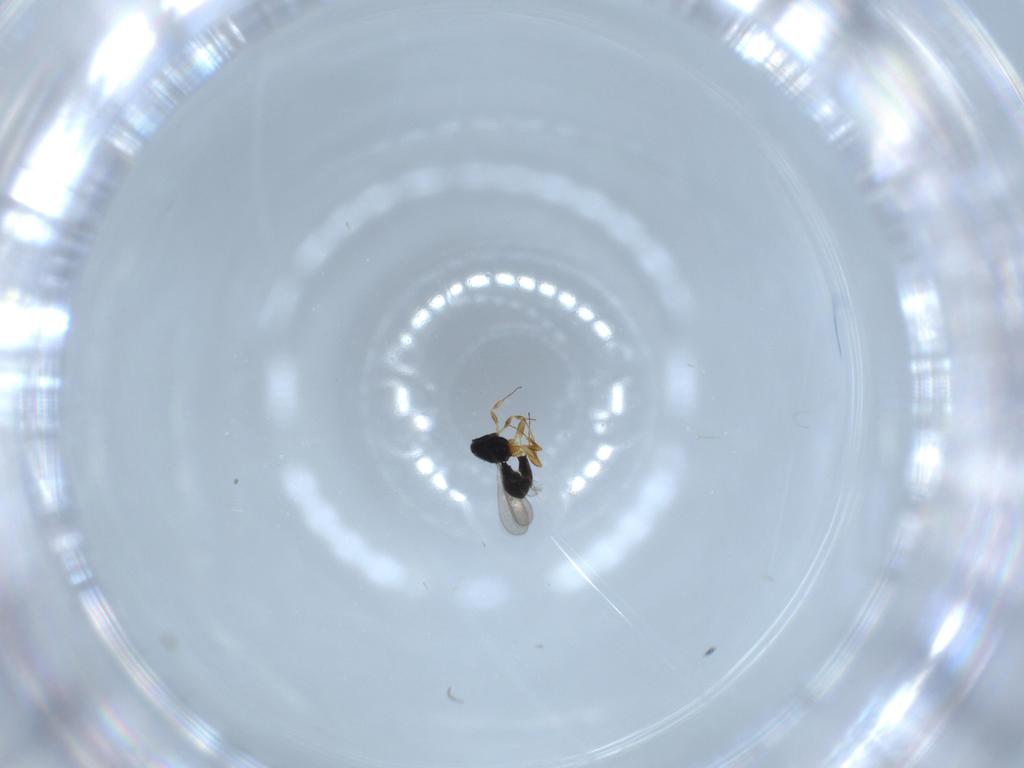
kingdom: Animalia
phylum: Arthropoda
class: Insecta
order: Hymenoptera
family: Scelionidae
